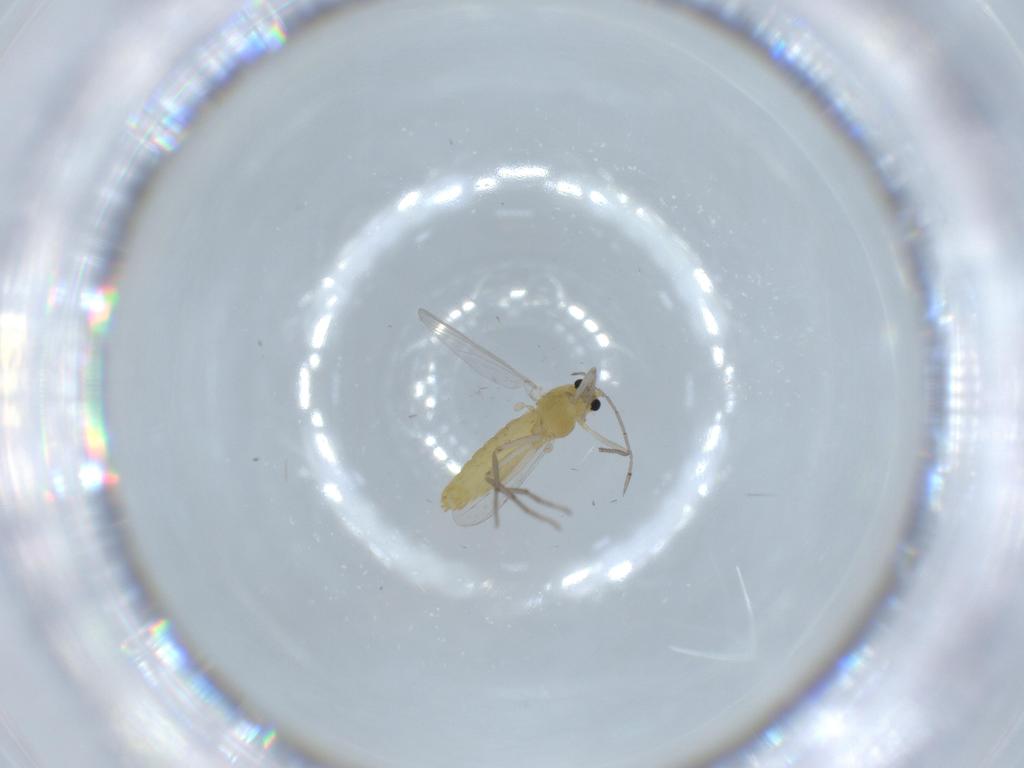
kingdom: Animalia
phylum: Arthropoda
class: Insecta
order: Diptera
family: Chironomidae
